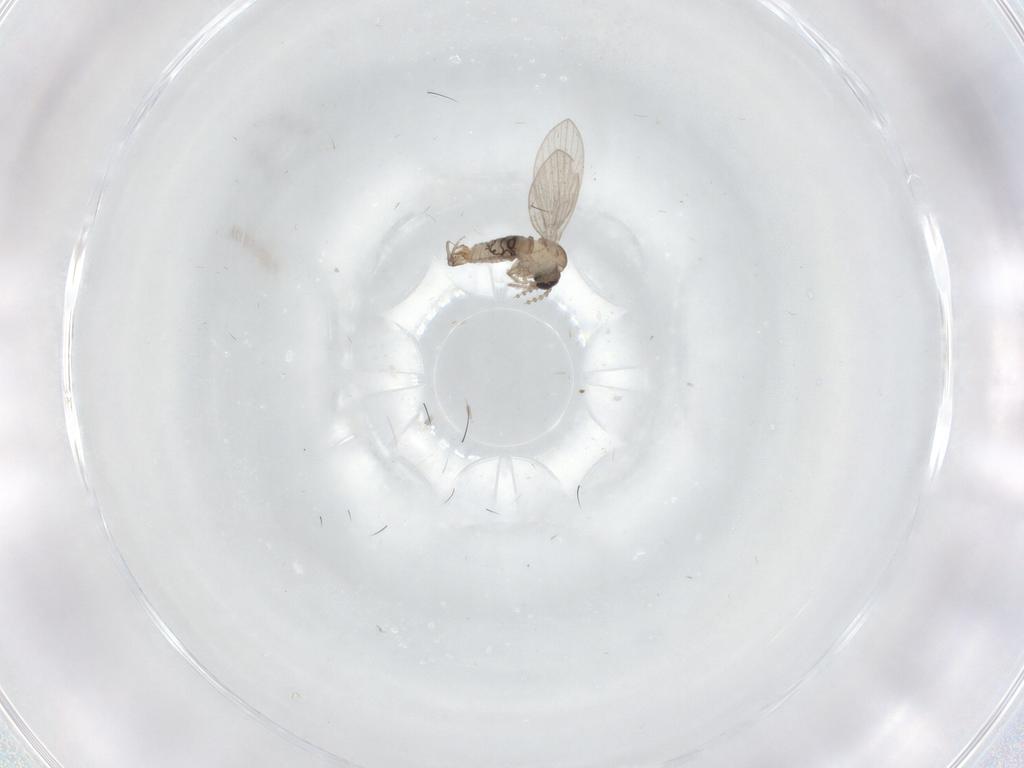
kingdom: Animalia
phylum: Arthropoda
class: Insecta
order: Diptera
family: Psychodidae
